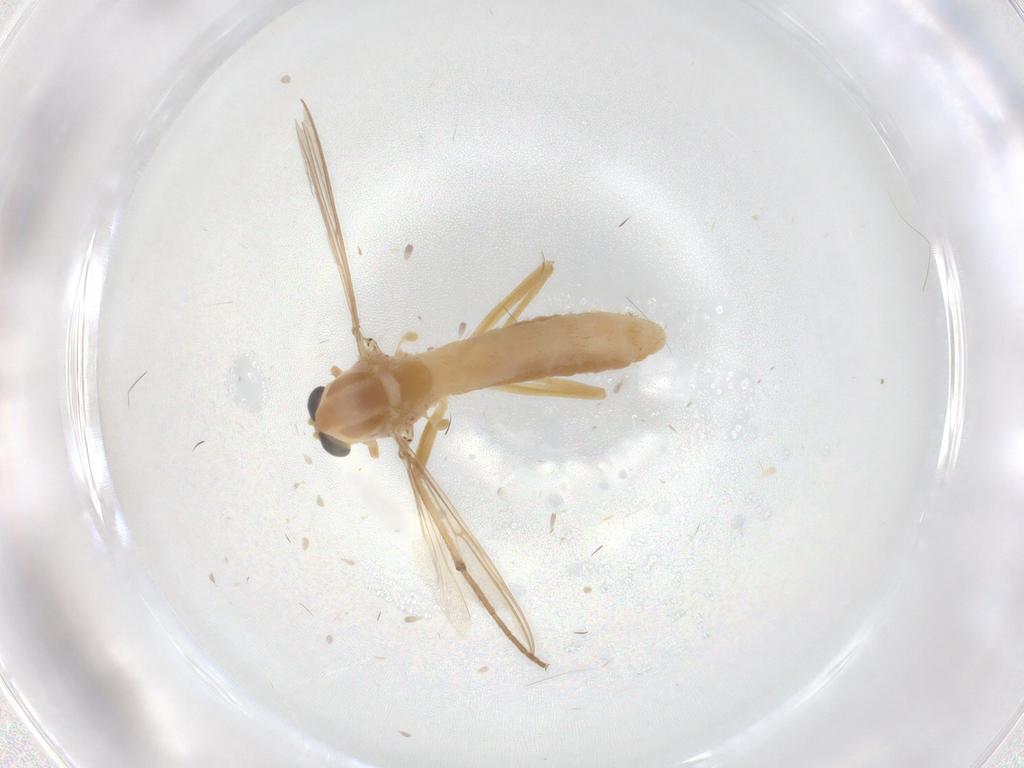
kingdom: Animalia
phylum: Arthropoda
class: Insecta
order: Diptera
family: Chironomidae
